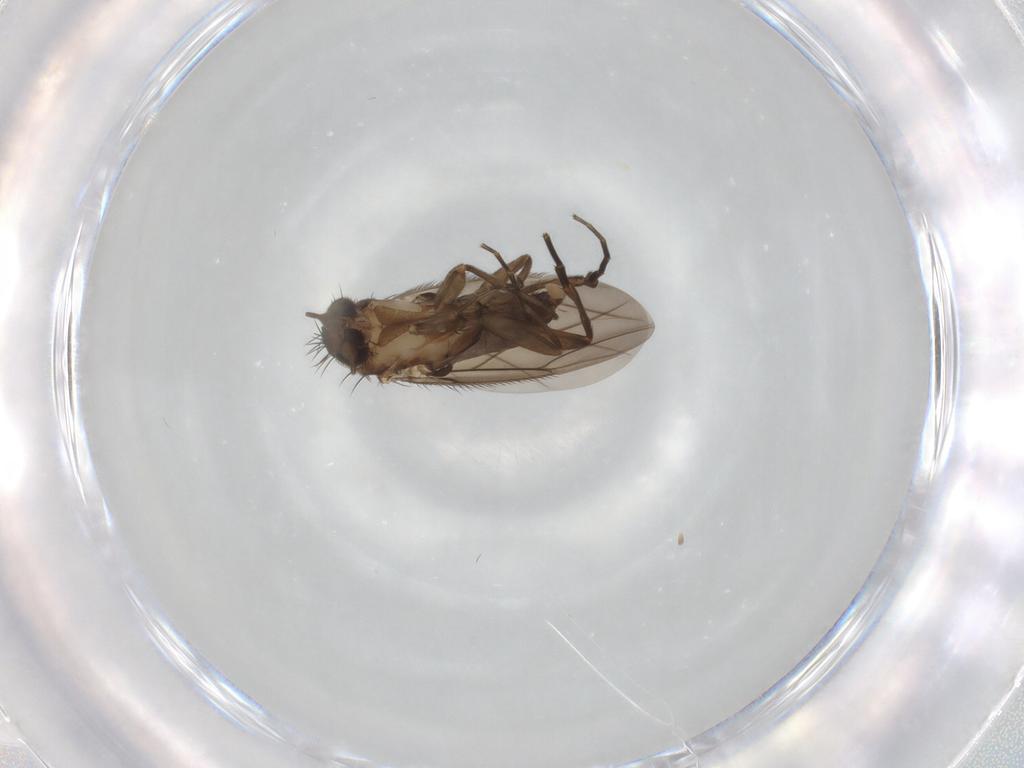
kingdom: Animalia
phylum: Arthropoda
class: Insecta
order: Diptera
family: Phoridae
